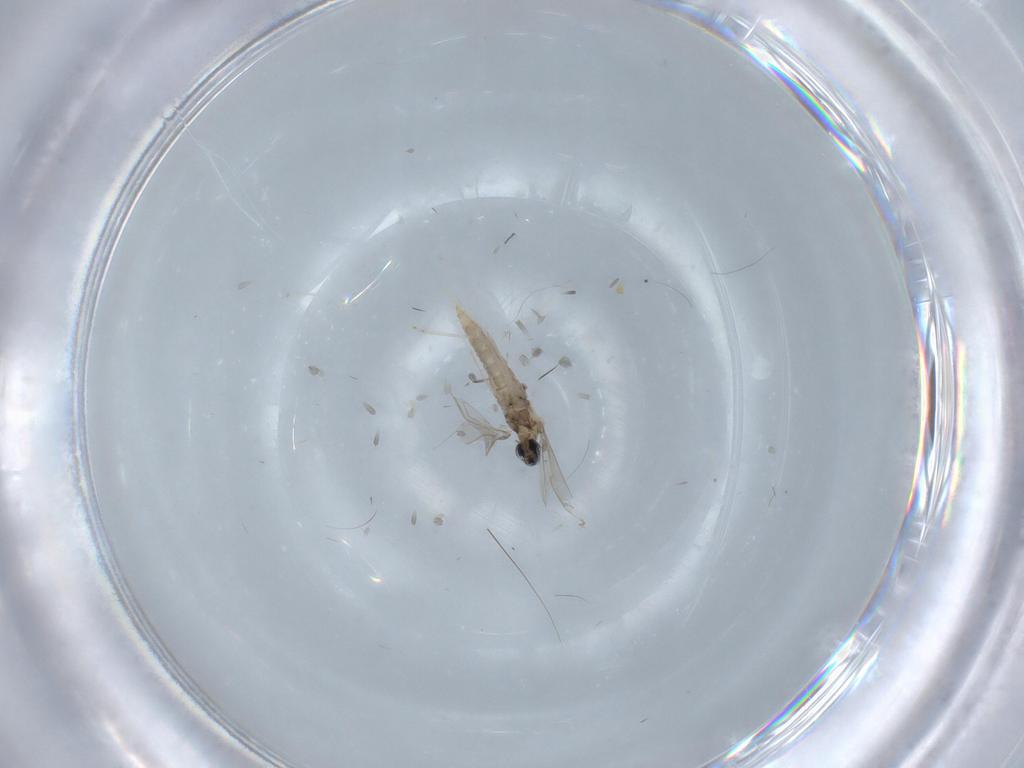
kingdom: Animalia
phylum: Arthropoda
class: Insecta
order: Diptera
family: Cecidomyiidae
